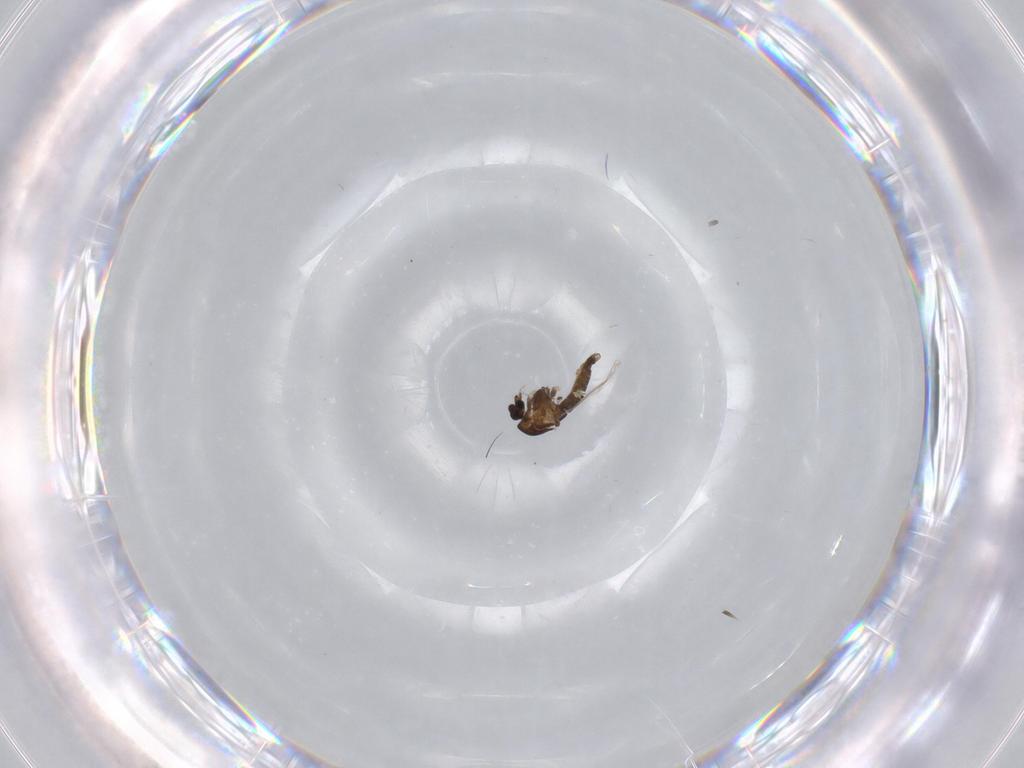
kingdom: Animalia
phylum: Arthropoda
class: Insecta
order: Diptera
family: Chironomidae
